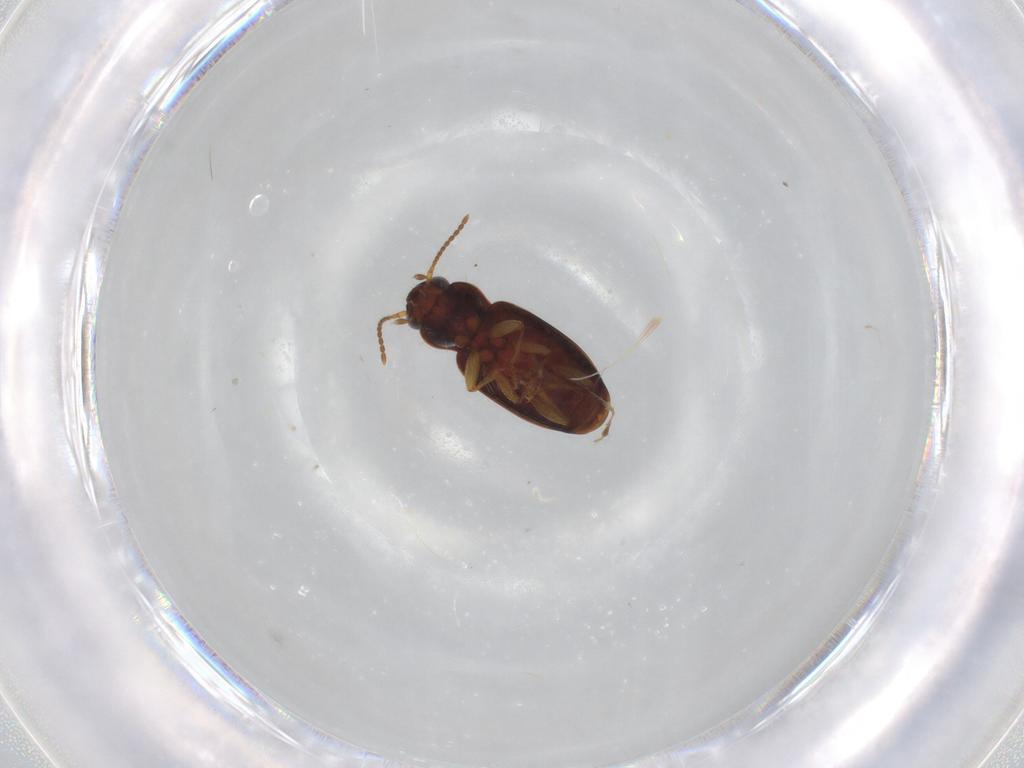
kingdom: Animalia
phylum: Arthropoda
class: Insecta
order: Coleoptera
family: Carabidae
